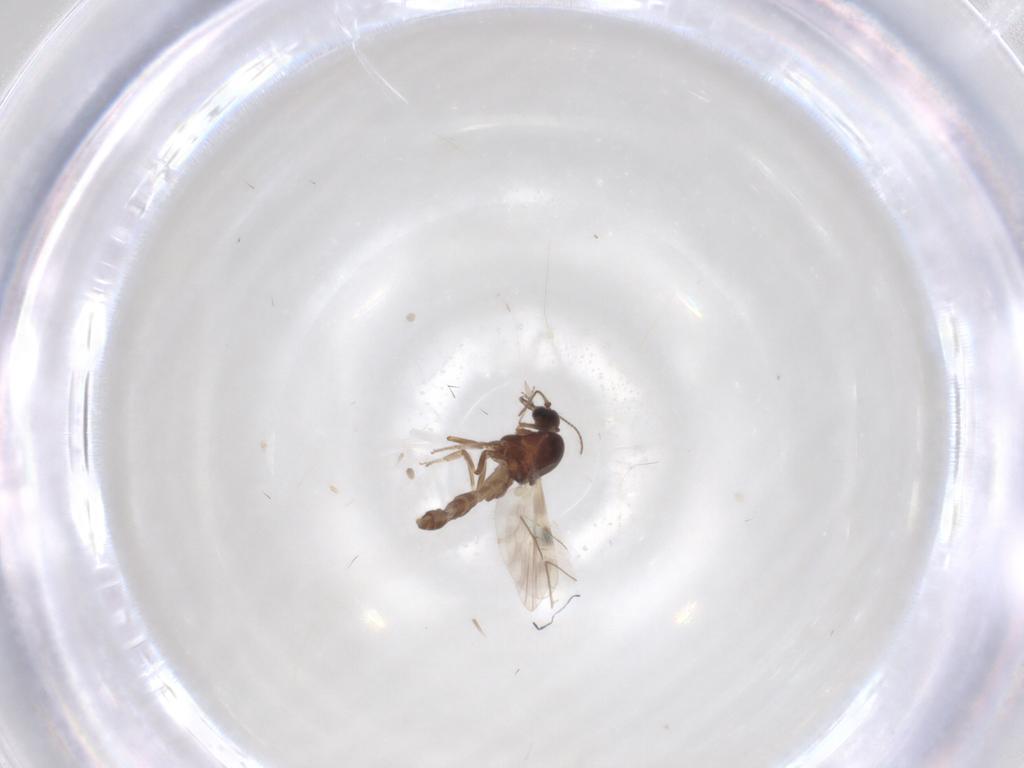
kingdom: Animalia
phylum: Arthropoda
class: Insecta
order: Diptera
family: Ceratopogonidae
